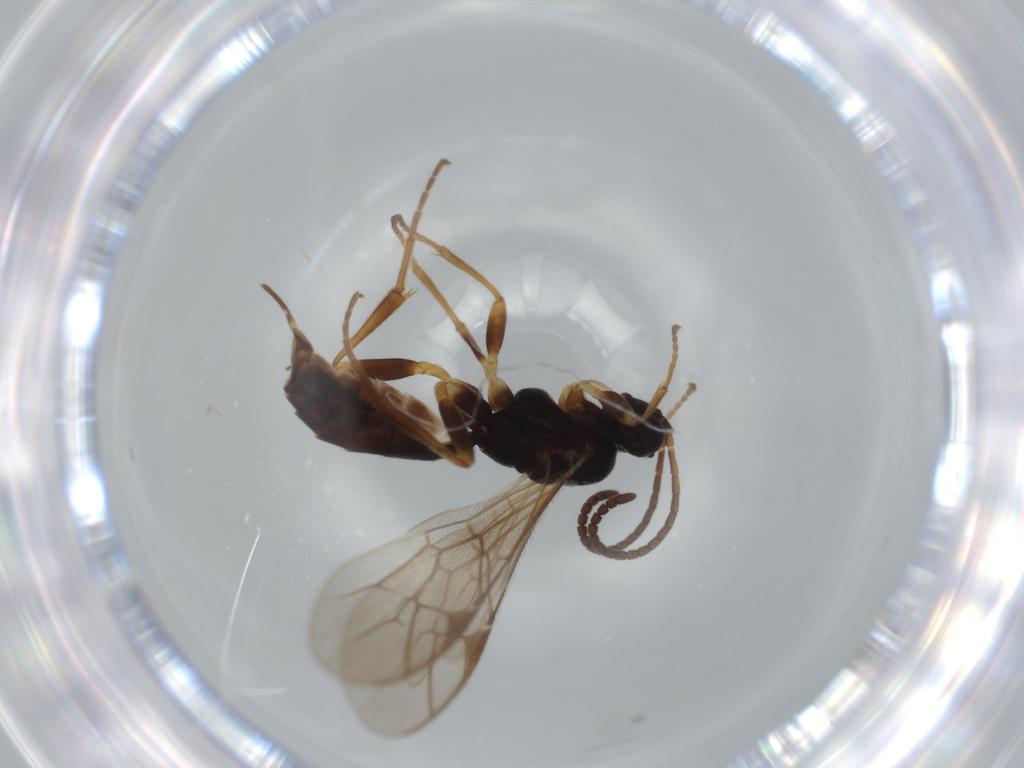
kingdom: Animalia
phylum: Arthropoda
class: Insecta
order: Hymenoptera
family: Ichneumonidae
